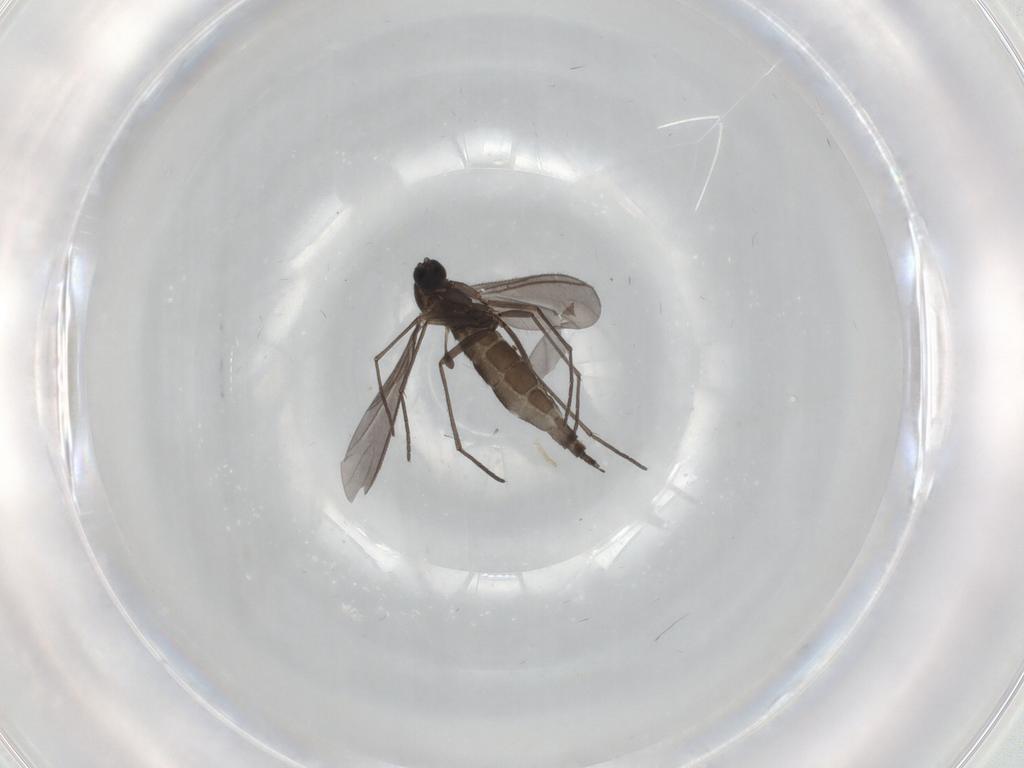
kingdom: Animalia
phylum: Arthropoda
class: Insecta
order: Diptera
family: Sciaridae
